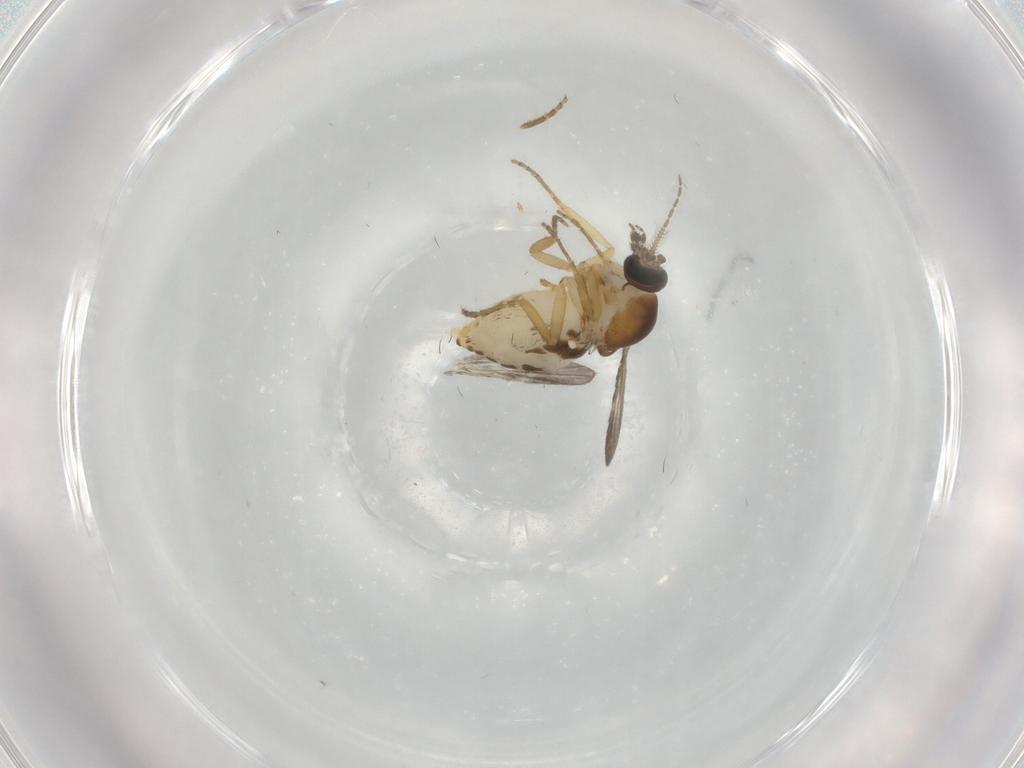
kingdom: Animalia
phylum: Arthropoda
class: Insecta
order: Diptera
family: Ceratopogonidae
